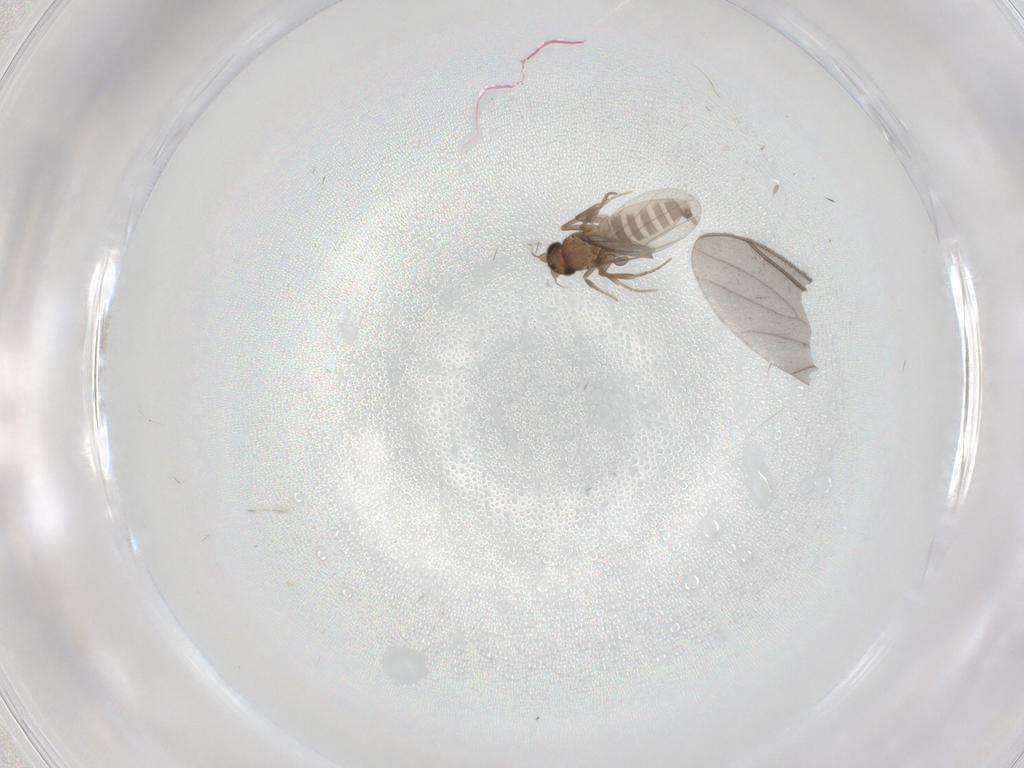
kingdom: Animalia
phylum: Arthropoda
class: Insecta
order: Diptera
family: Sciaridae
